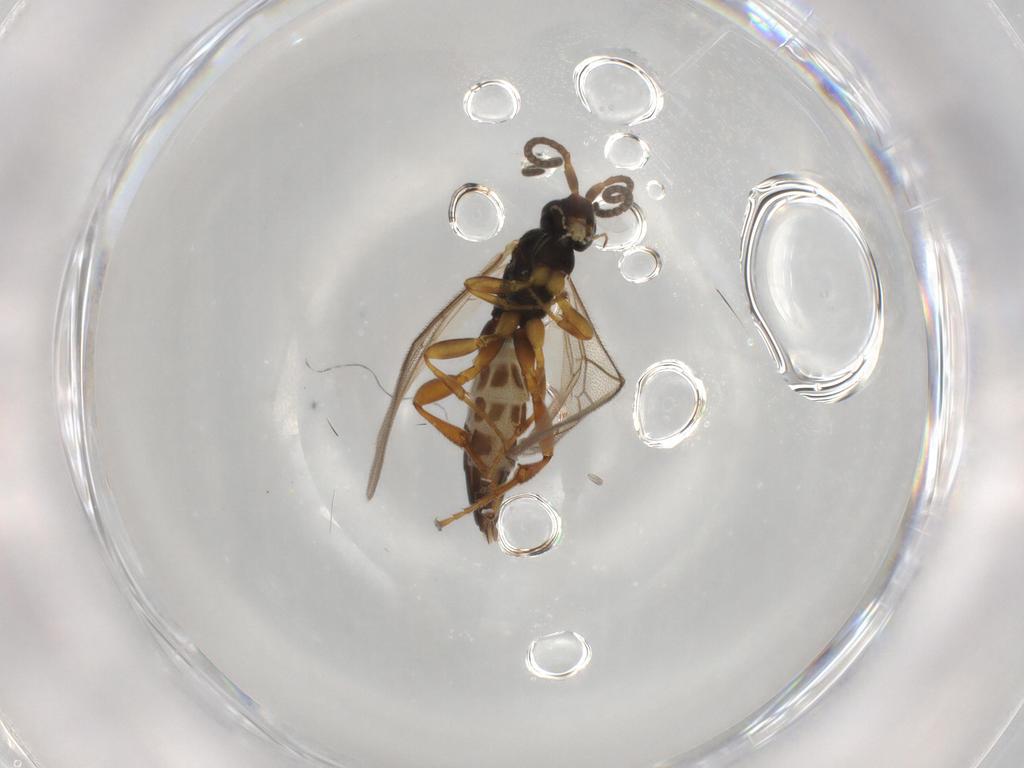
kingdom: Animalia
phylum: Arthropoda
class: Insecta
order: Hymenoptera
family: Ichneumonidae
